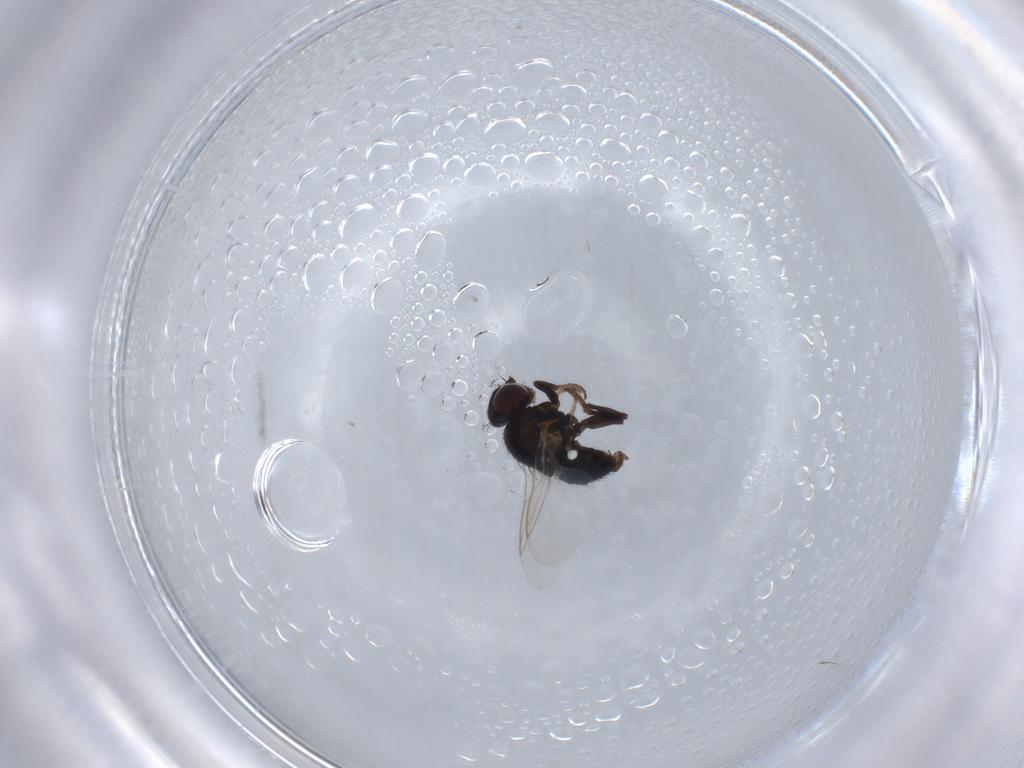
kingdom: Animalia
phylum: Arthropoda
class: Insecta
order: Diptera
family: Agromyzidae
